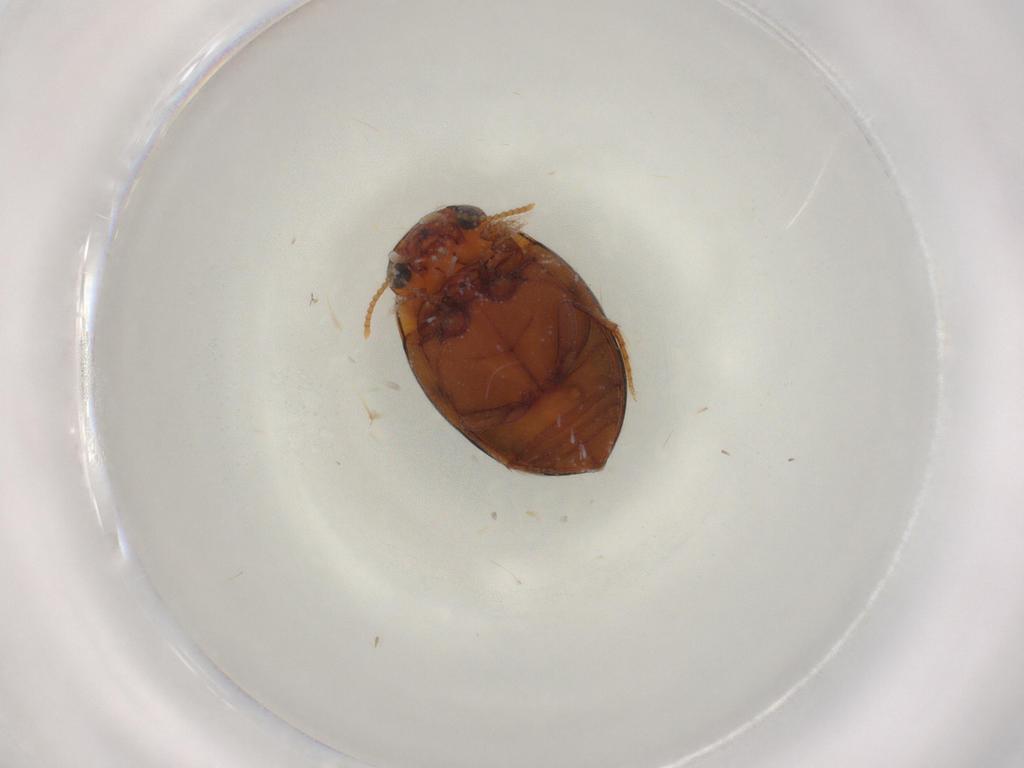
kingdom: Animalia
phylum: Arthropoda
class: Insecta
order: Coleoptera
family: Dytiscidae
